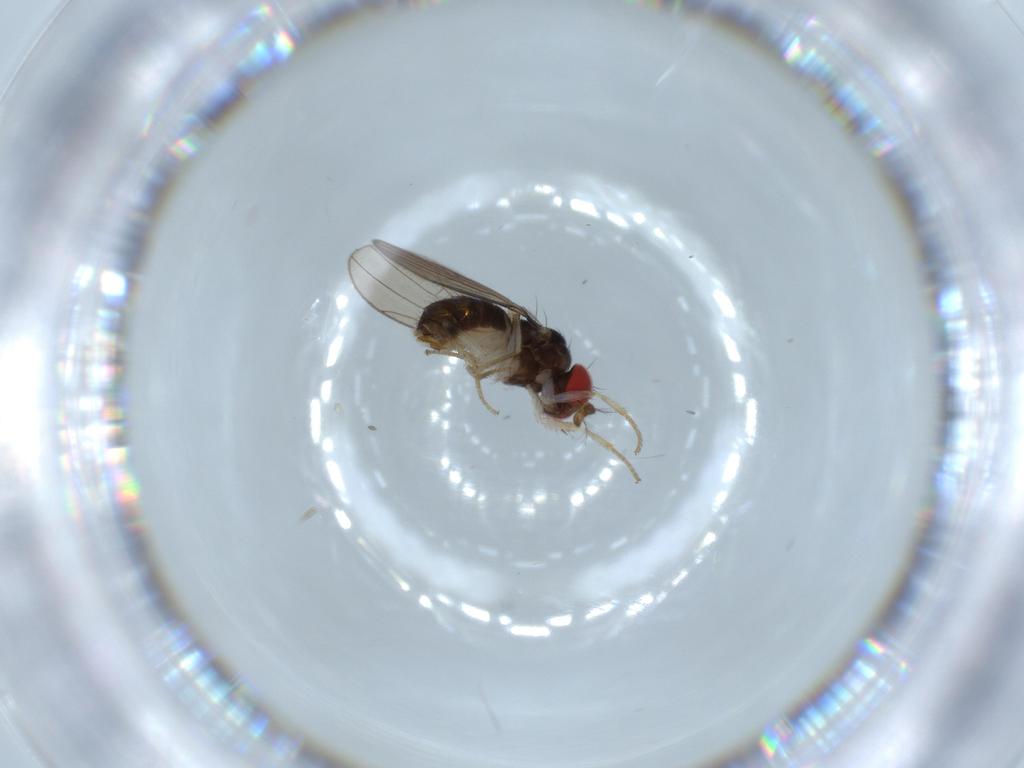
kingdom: Animalia
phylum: Arthropoda
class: Insecta
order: Diptera
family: Drosophilidae
